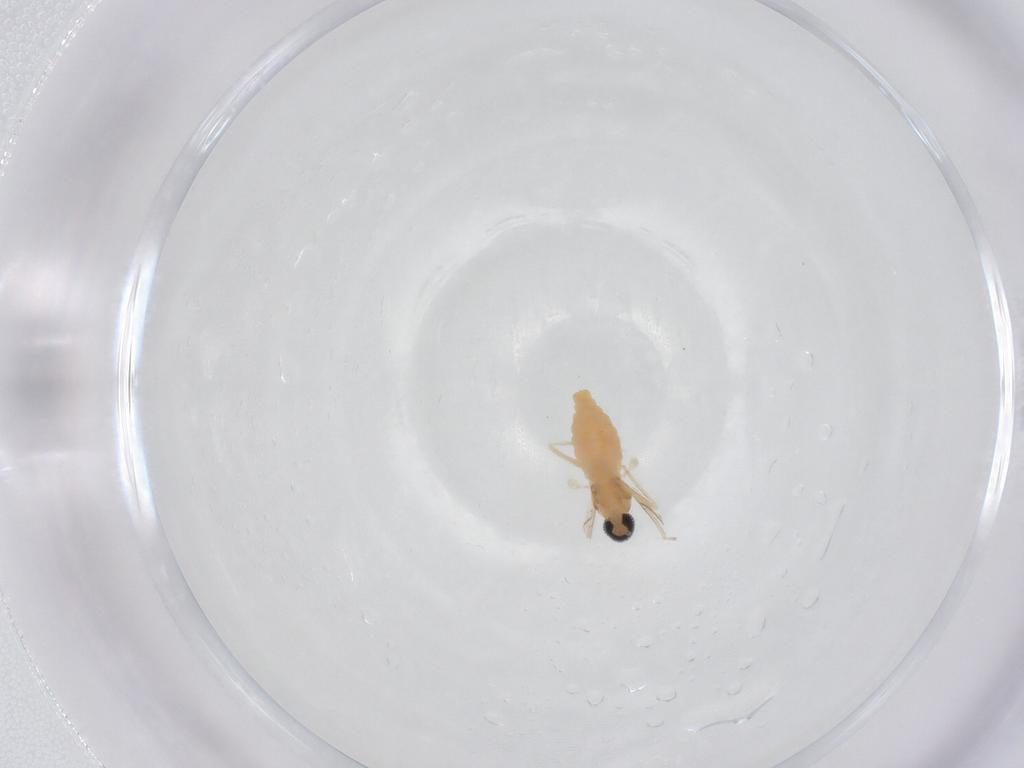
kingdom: Animalia
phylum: Arthropoda
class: Insecta
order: Diptera
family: Cecidomyiidae
